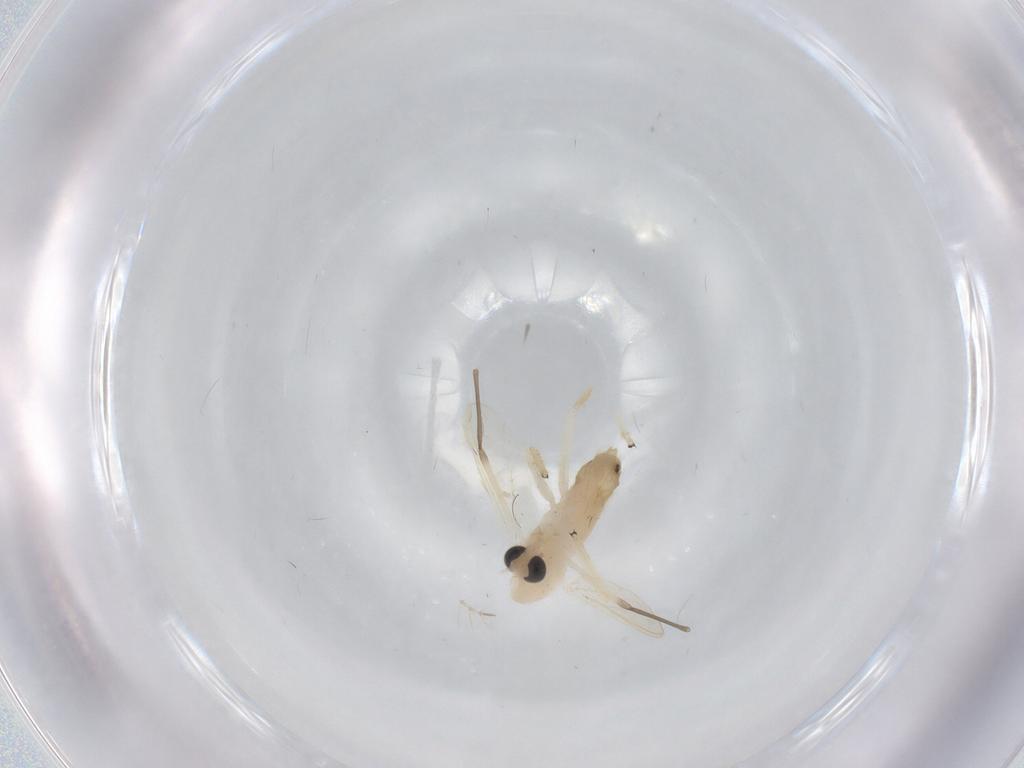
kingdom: Animalia
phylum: Arthropoda
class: Insecta
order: Diptera
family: Chironomidae
